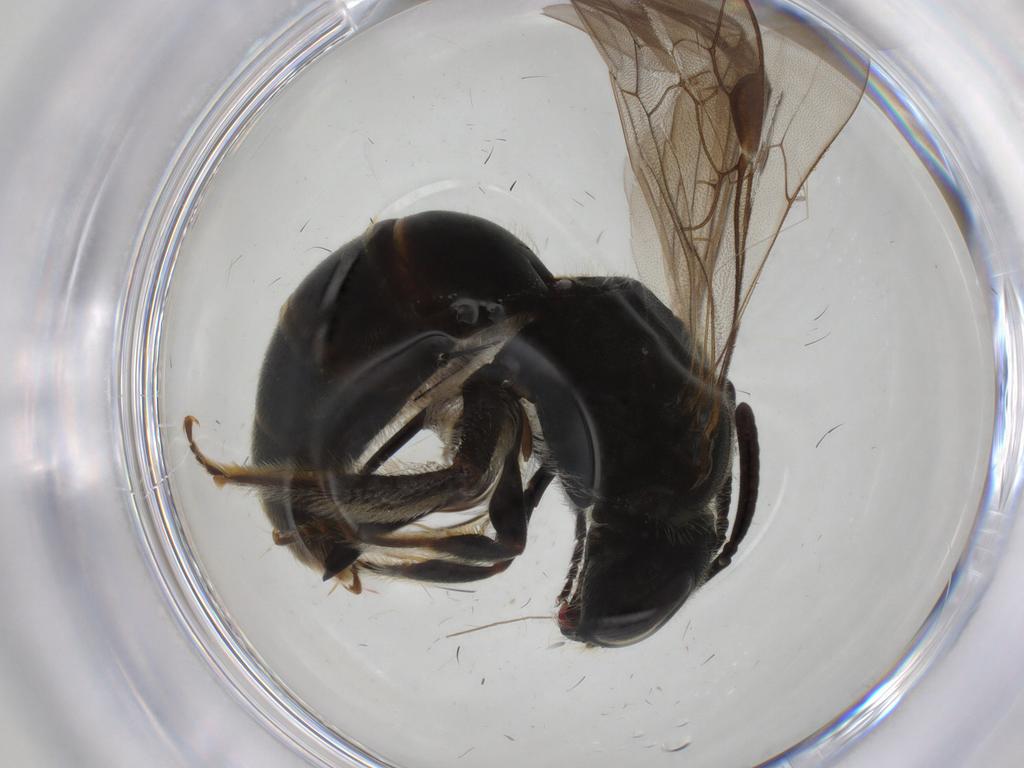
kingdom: Animalia
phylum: Arthropoda
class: Insecta
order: Hymenoptera
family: Halictidae
